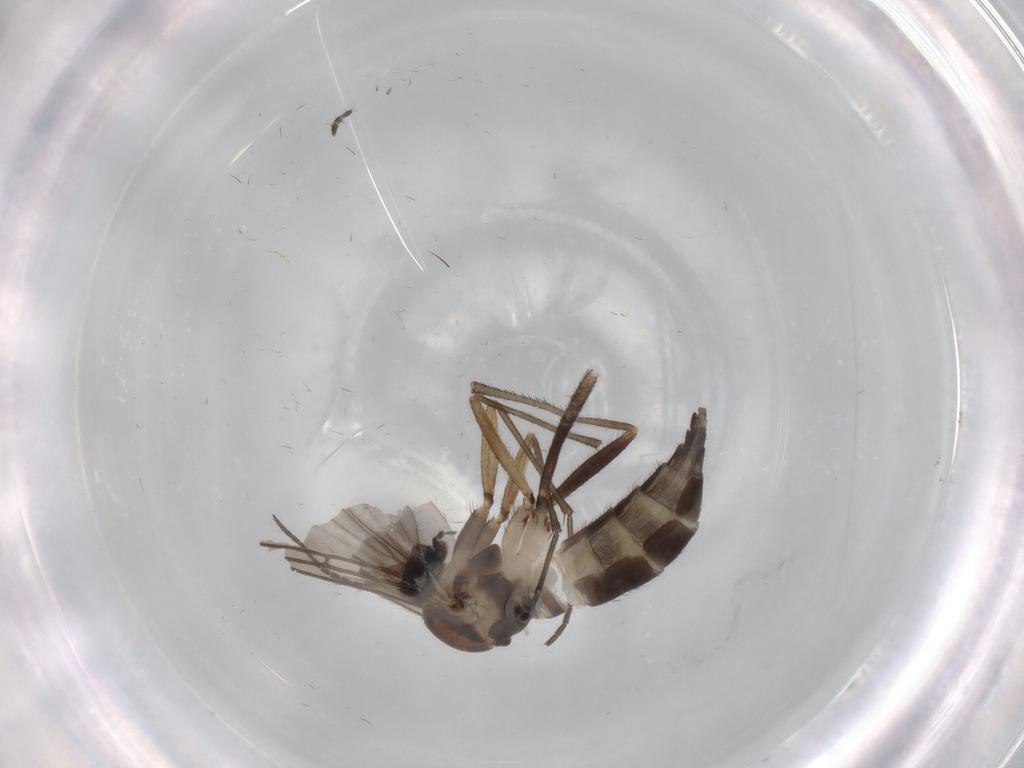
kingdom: Animalia
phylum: Arthropoda
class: Insecta
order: Diptera
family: Sciaridae
